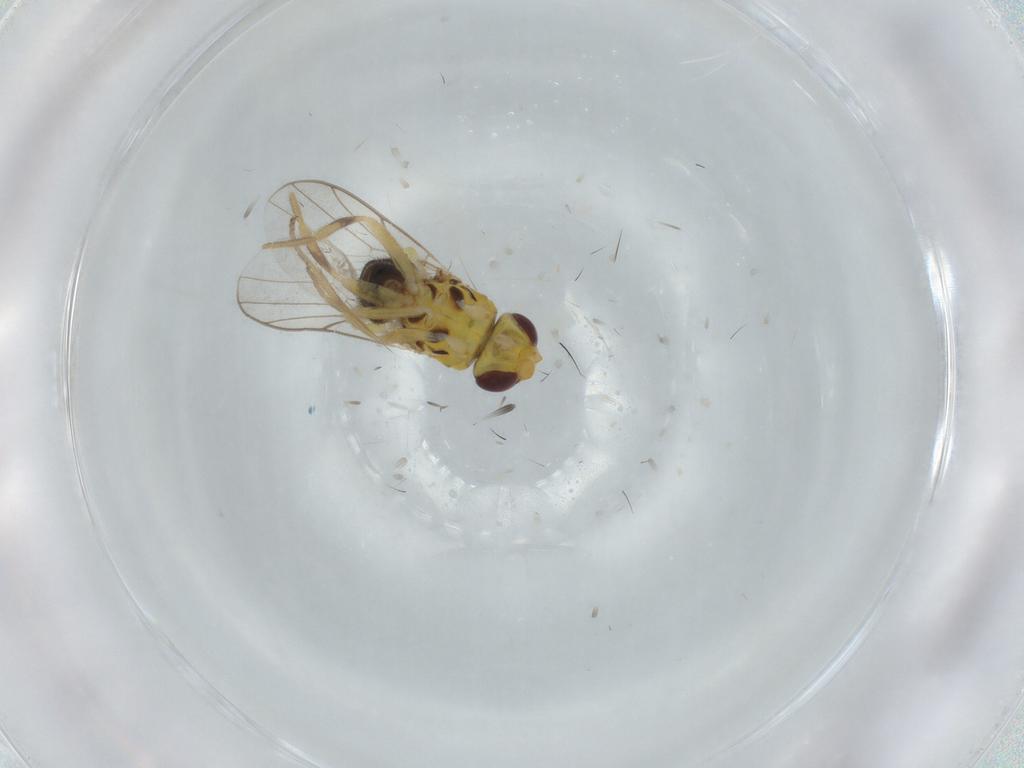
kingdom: Animalia
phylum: Arthropoda
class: Insecta
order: Diptera
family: Chloropidae
